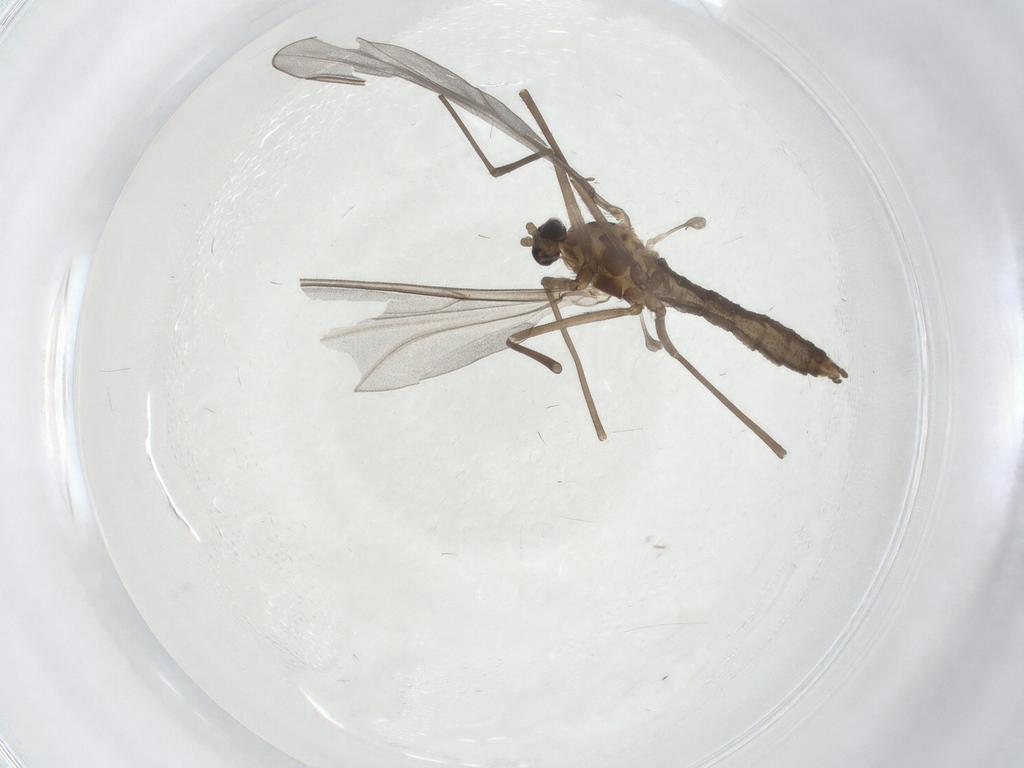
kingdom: Animalia
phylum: Arthropoda
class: Insecta
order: Diptera
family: Cecidomyiidae
